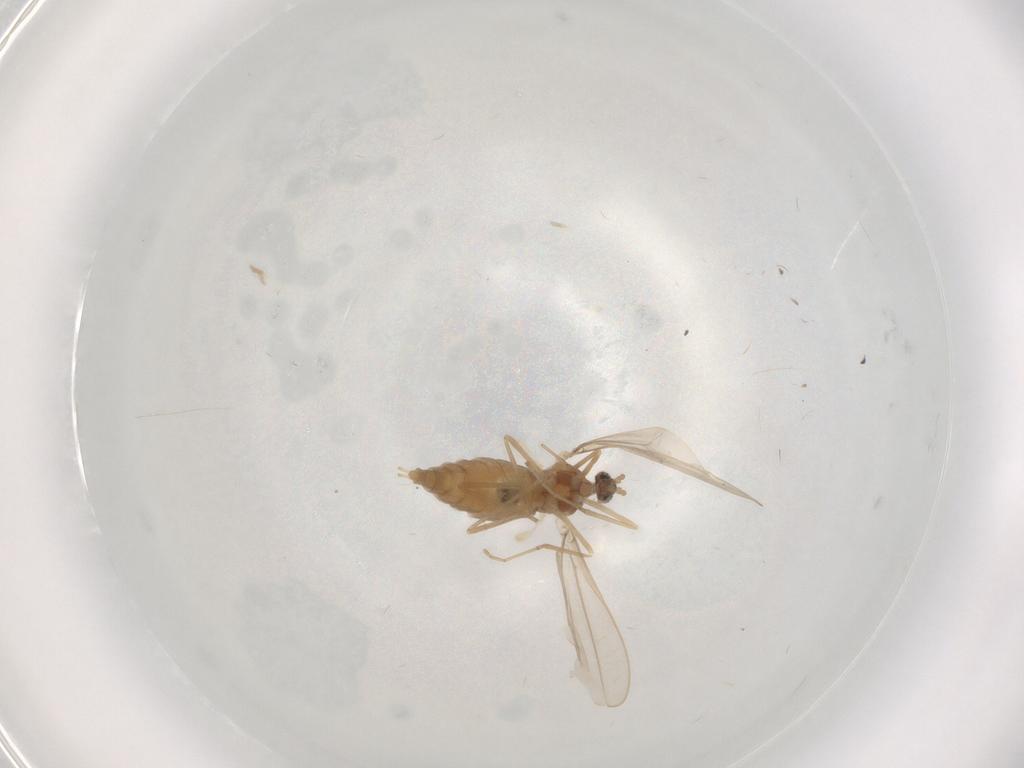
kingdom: Animalia
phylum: Arthropoda
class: Insecta
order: Diptera
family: Cecidomyiidae
